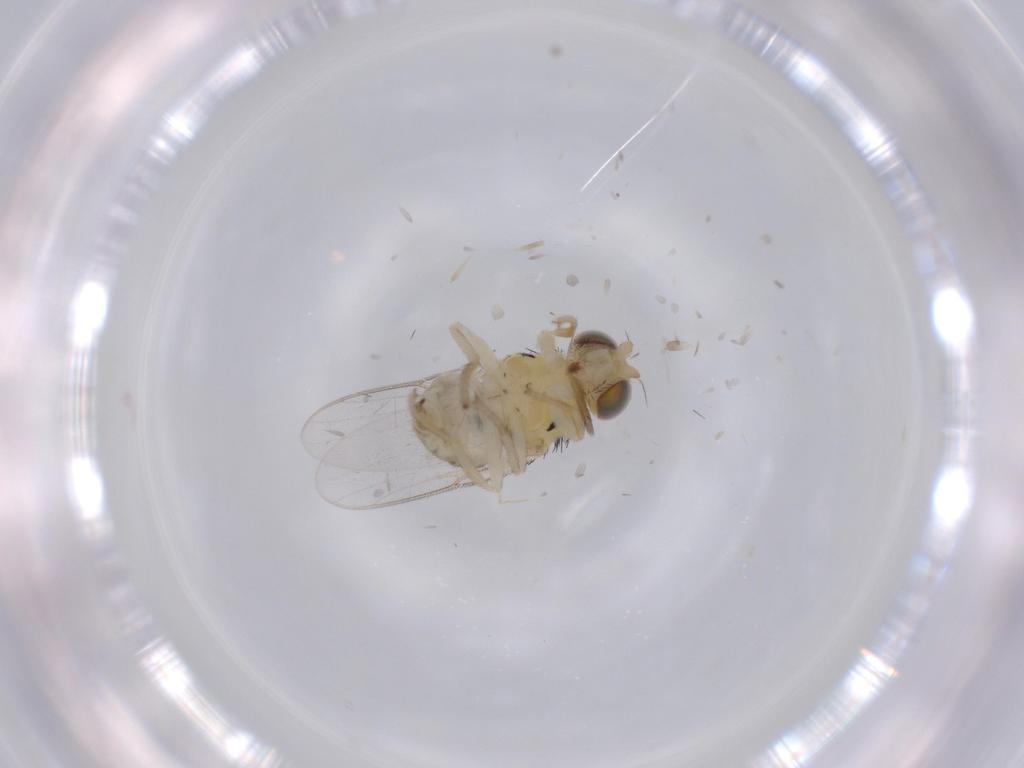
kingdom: Animalia
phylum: Arthropoda
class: Insecta
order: Diptera
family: Chloropidae
